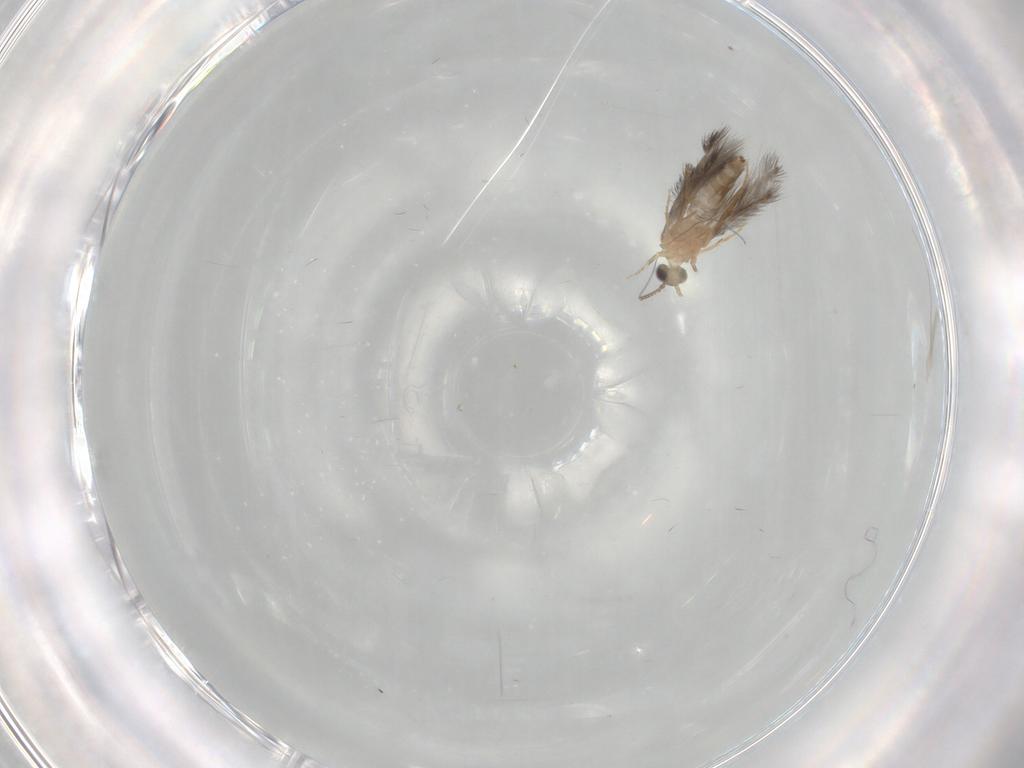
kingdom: Animalia
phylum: Arthropoda
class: Insecta
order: Trichoptera
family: Hydroptilidae
